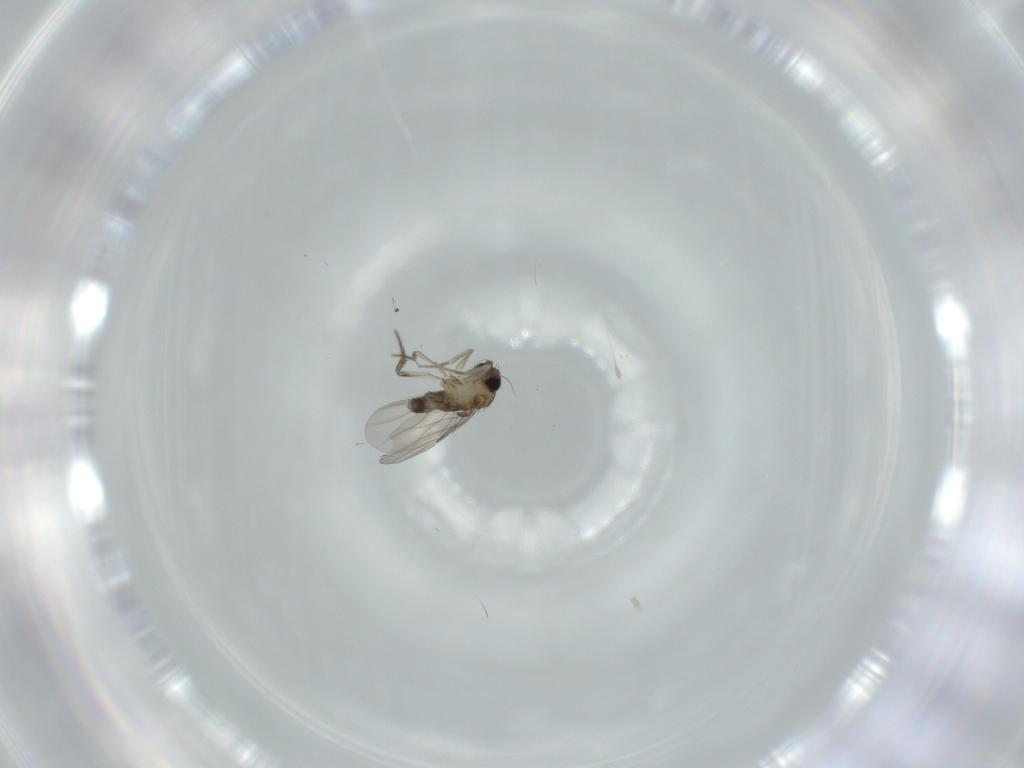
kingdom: Animalia
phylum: Arthropoda
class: Insecta
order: Diptera
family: Phoridae
